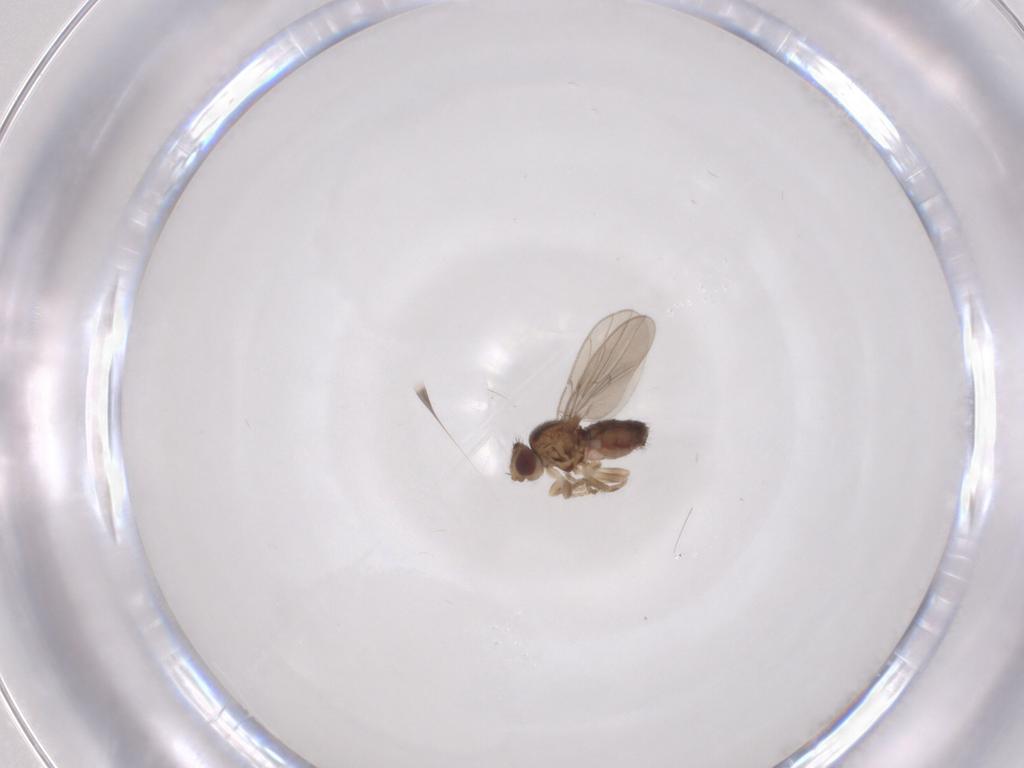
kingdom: Animalia
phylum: Arthropoda
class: Insecta
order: Diptera
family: Chloropidae
